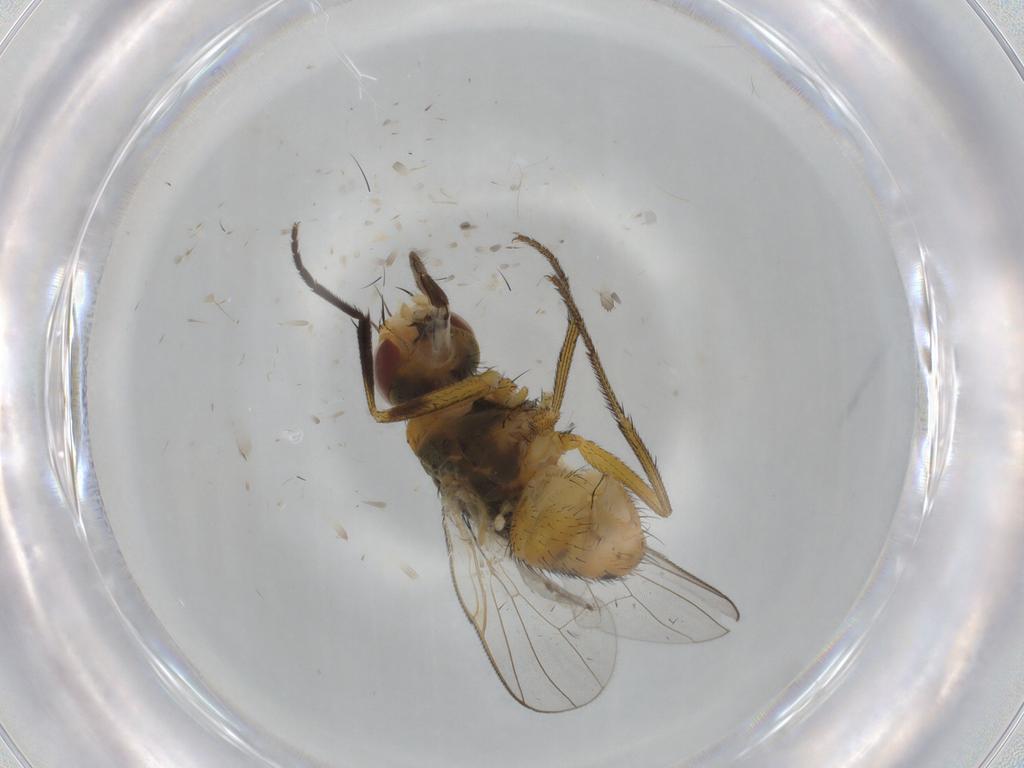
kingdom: Animalia
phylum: Arthropoda
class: Insecta
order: Diptera
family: Muscidae
